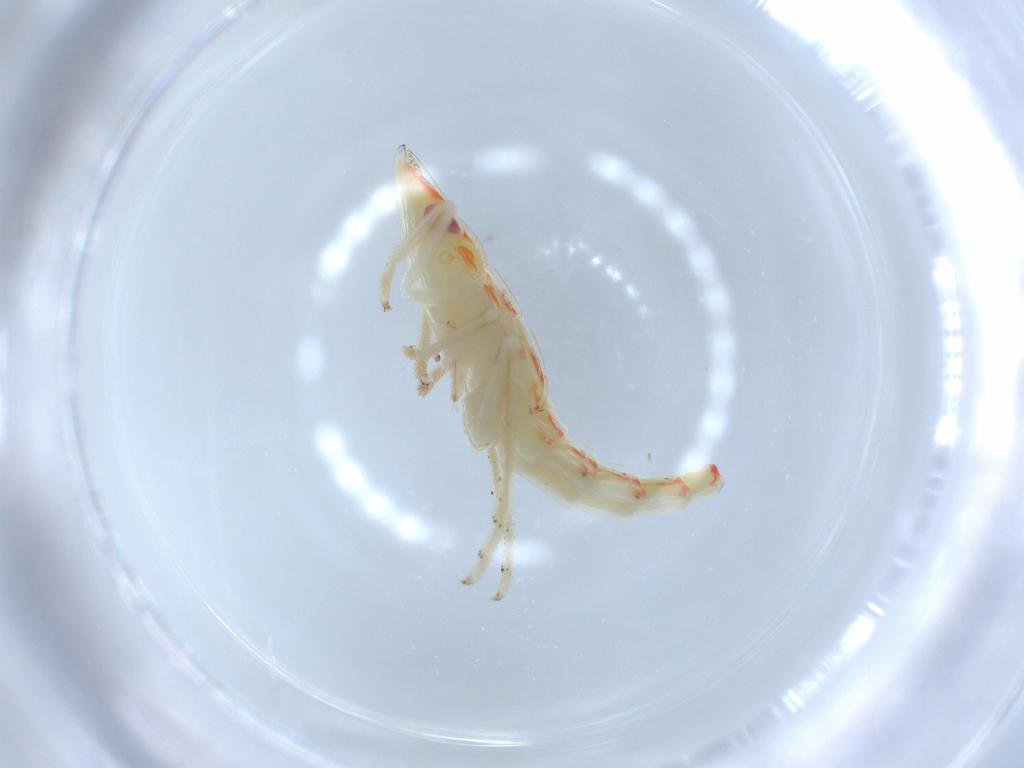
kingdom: Animalia
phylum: Arthropoda
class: Insecta
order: Hemiptera
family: Tropiduchidae
